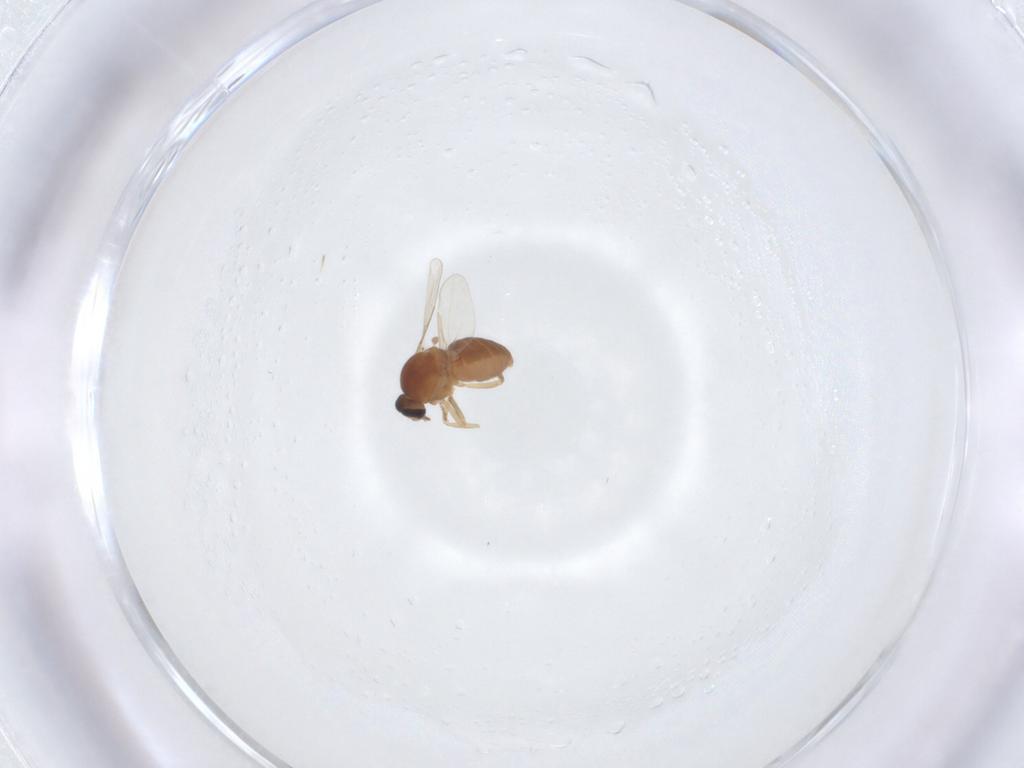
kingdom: Animalia
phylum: Arthropoda
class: Insecta
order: Diptera
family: Ceratopogonidae
